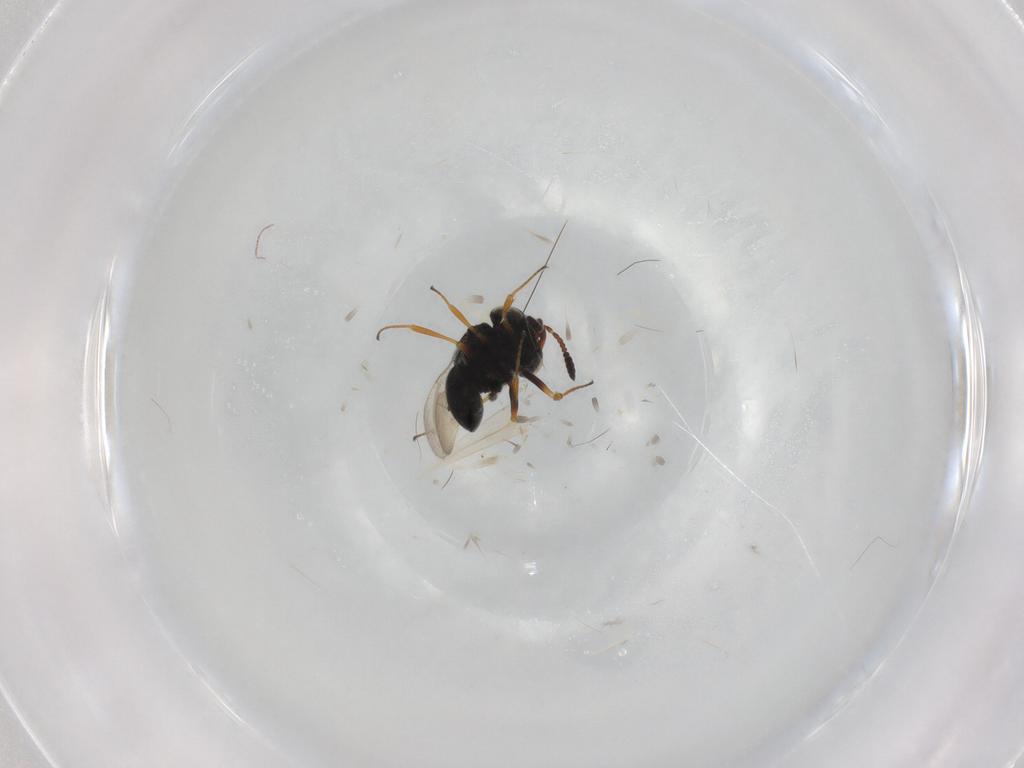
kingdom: Animalia
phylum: Arthropoda
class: Insecta
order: Hymenoptera
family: Scelionidae
